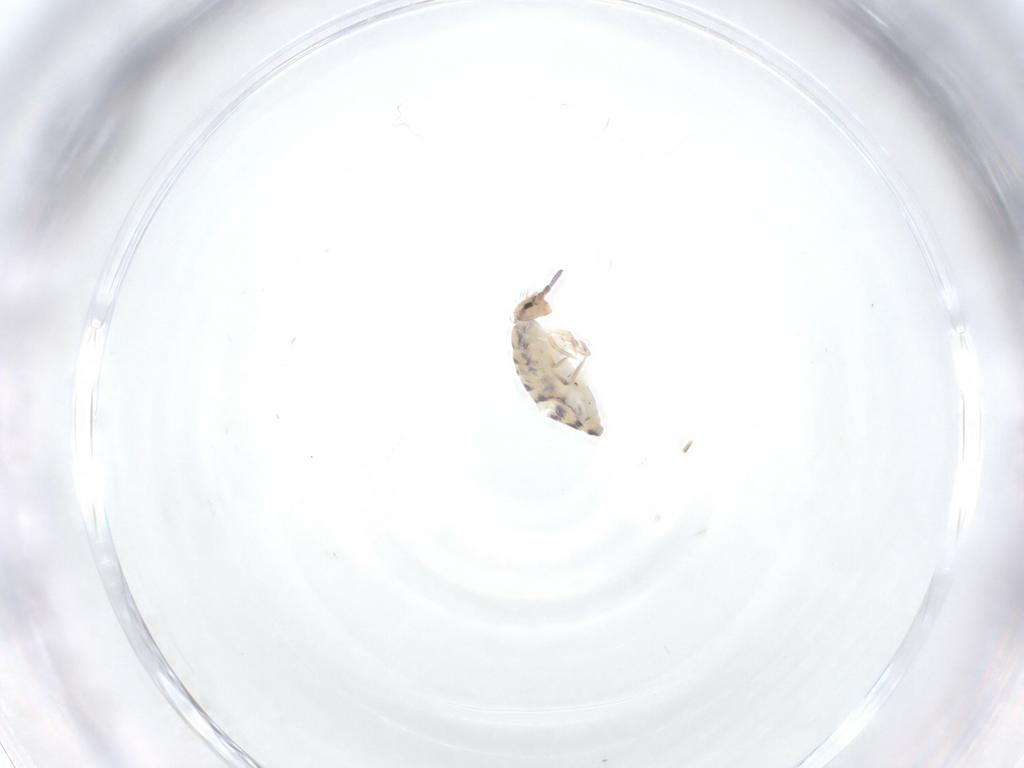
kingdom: Animalia
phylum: Arthropoda
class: Collembola
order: Entomobryomorpha
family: Entomobryidae
